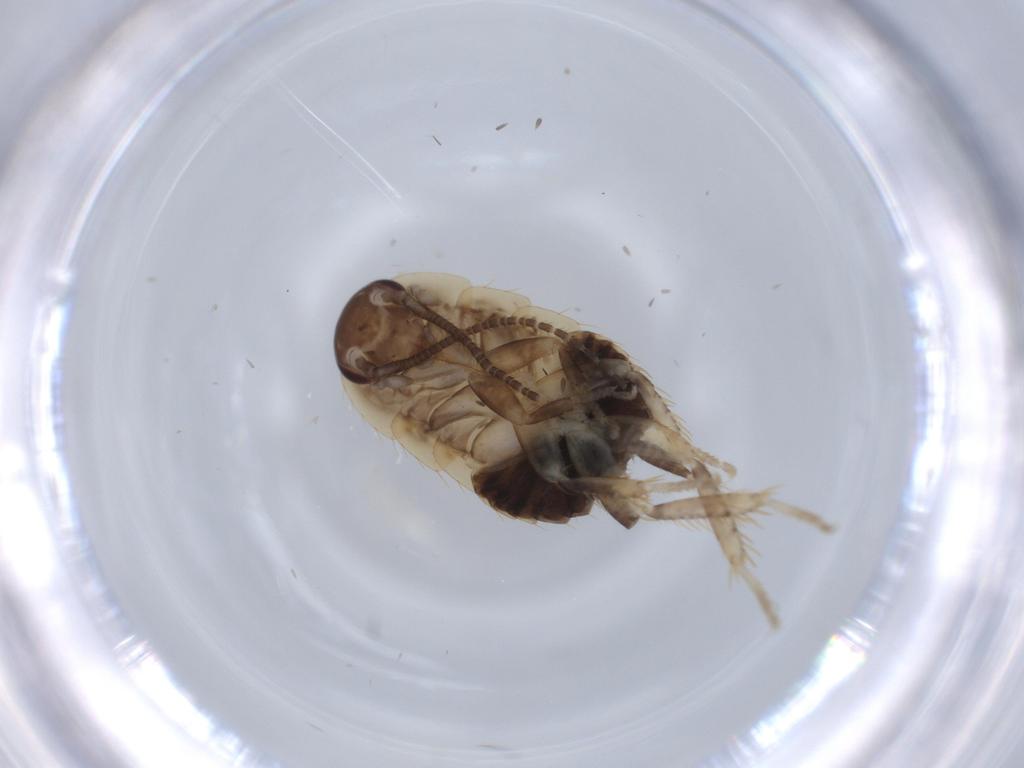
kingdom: Animalia
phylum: Arthropoda
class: Insecta
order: Blattodea
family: Ectobiidae
